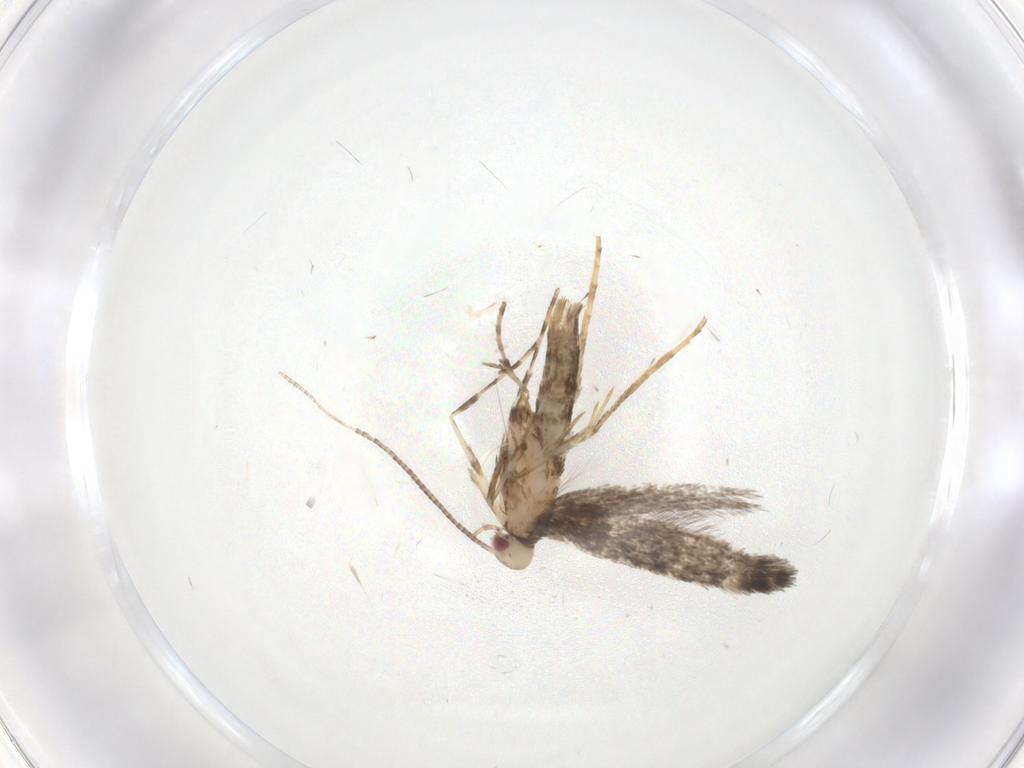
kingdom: Animalia
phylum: Arthropoda
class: Insecta
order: Lepidoptera
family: Gracillariidae
